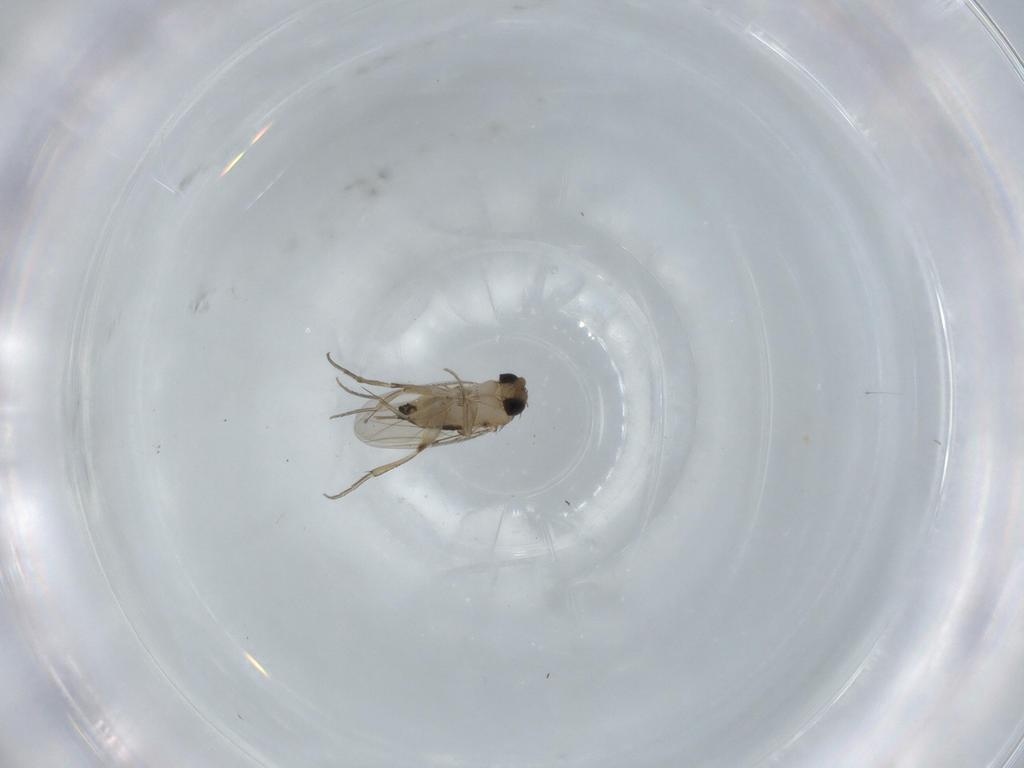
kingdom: Animalia
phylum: Arthropoda
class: Insecta
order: Diptera
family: Phoridae
